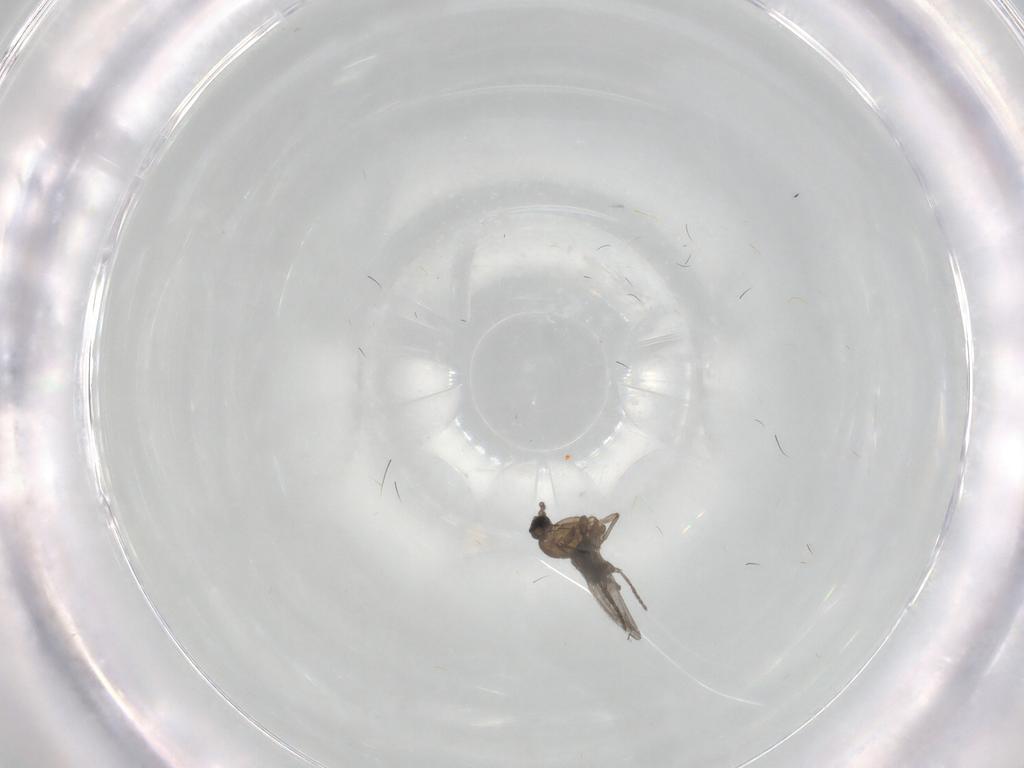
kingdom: Animalia
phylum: Arthropoda
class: Insecta
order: Diptera
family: Sciaridae
